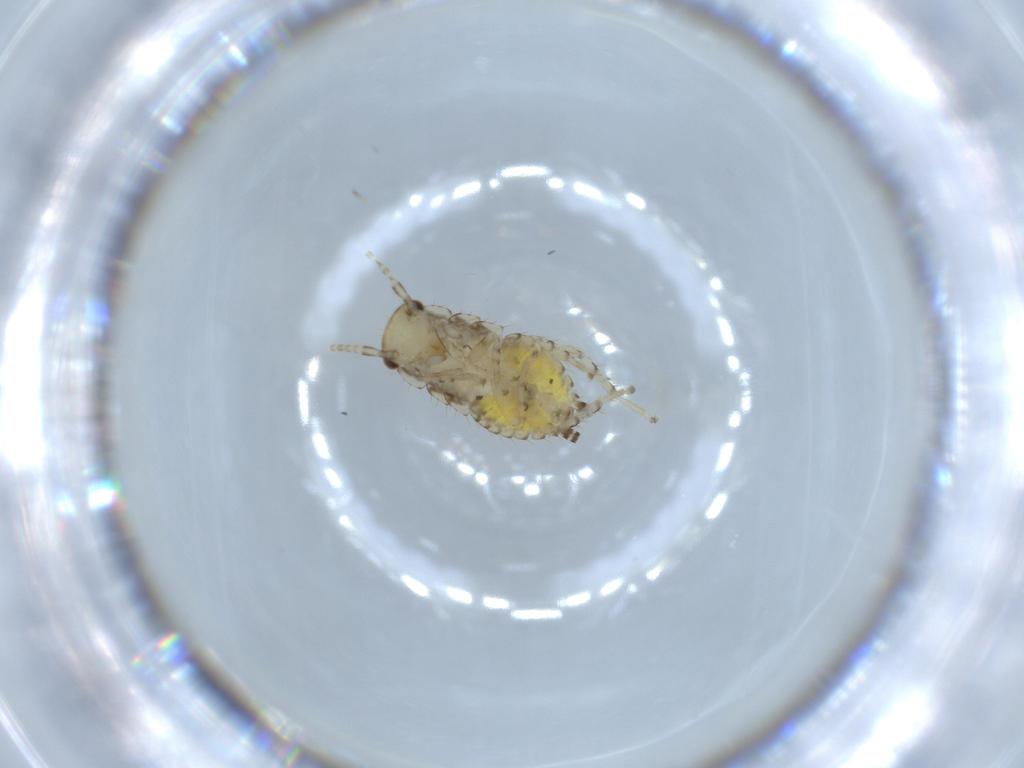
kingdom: Animalia
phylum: Arthropoda
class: Insecta
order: Blattodea
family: Ectobiidae
